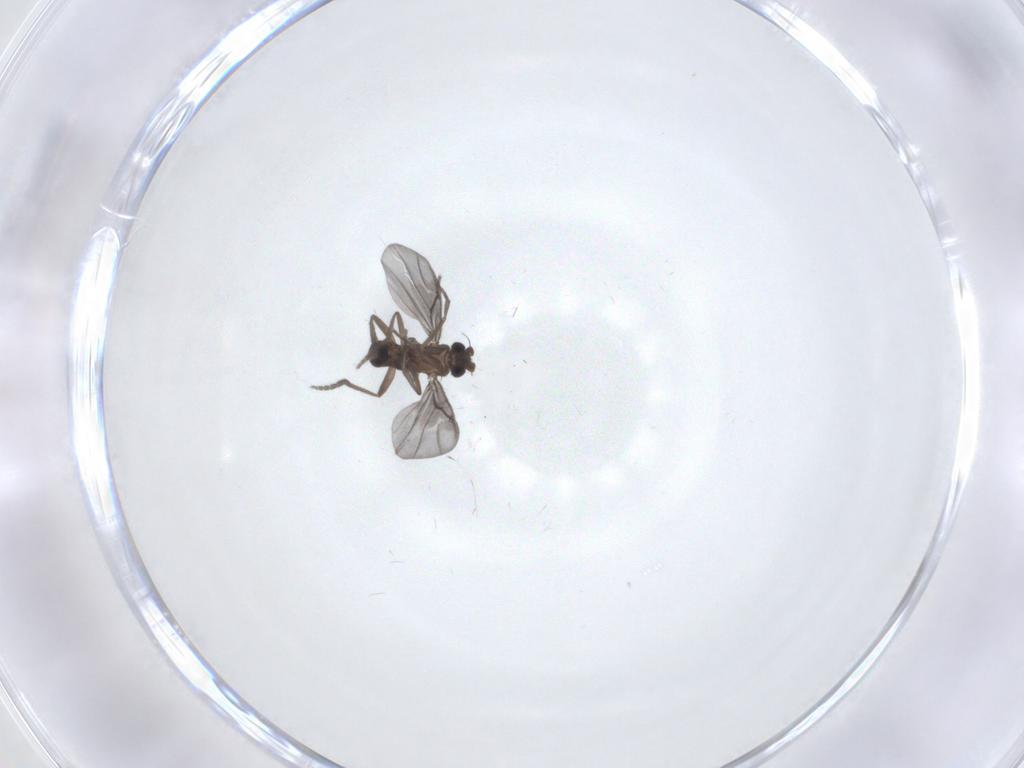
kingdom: Animalia
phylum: Arthropoda
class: Insecta
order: Diptera
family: Phoridae
